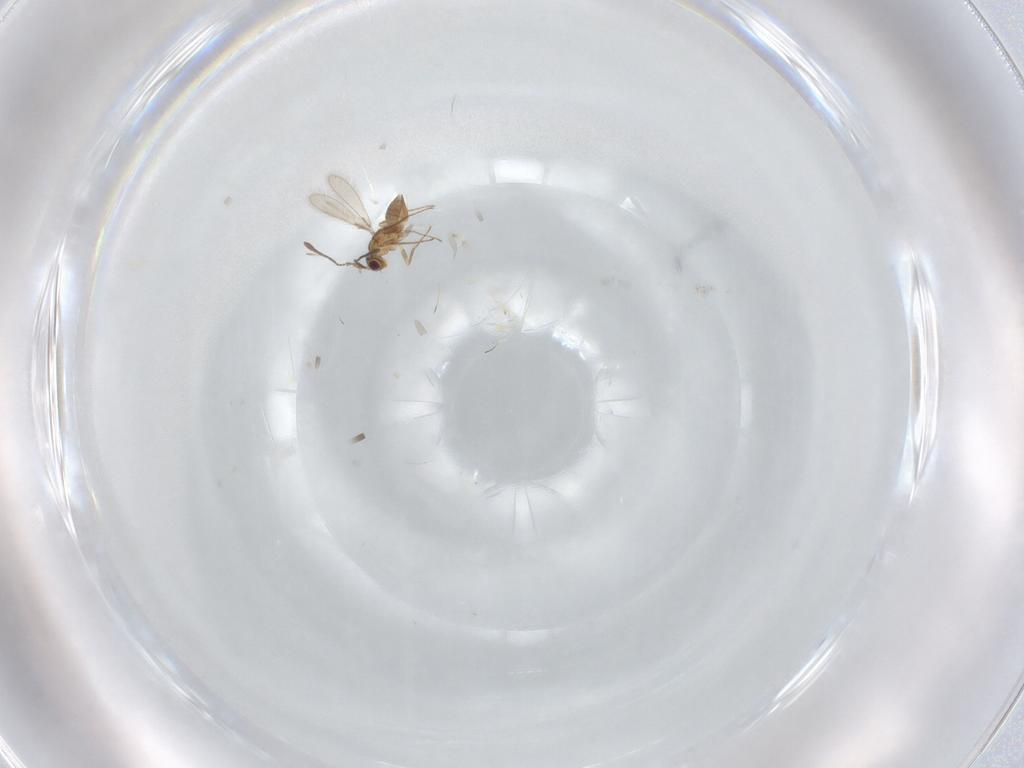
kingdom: Animalia
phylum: Arthropoda
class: Insecta
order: Hymenoptera
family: Mymaridae
